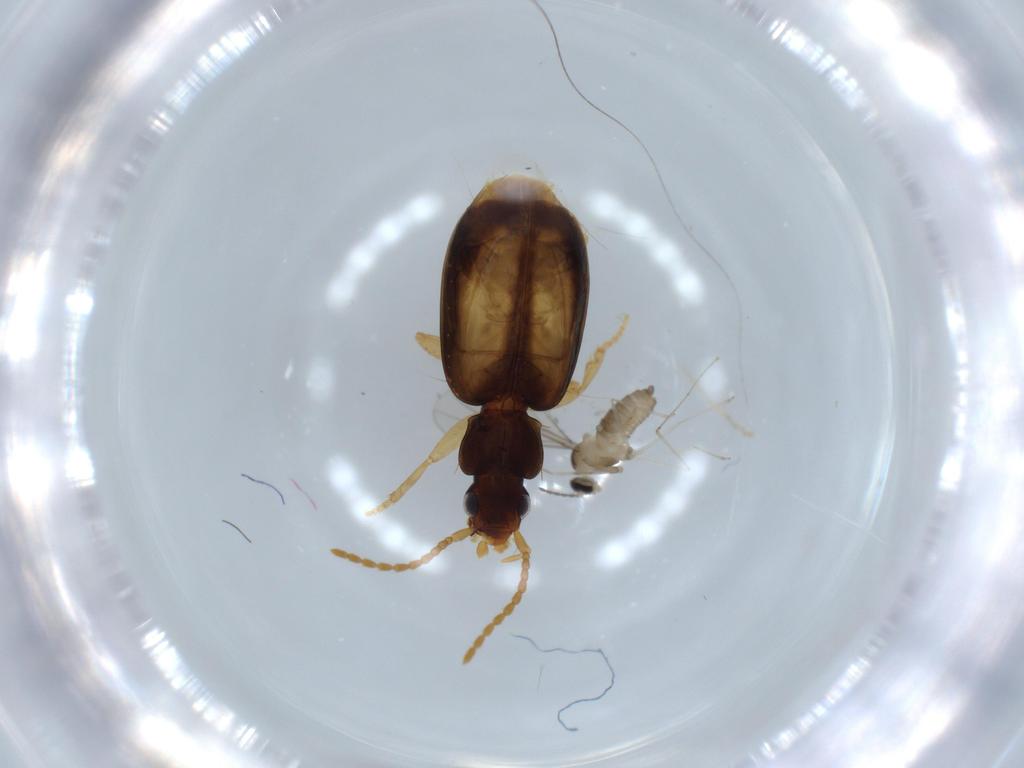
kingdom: Animalia
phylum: Arthropoda
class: Insecta
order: Diptera
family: Cecidomyiidae
